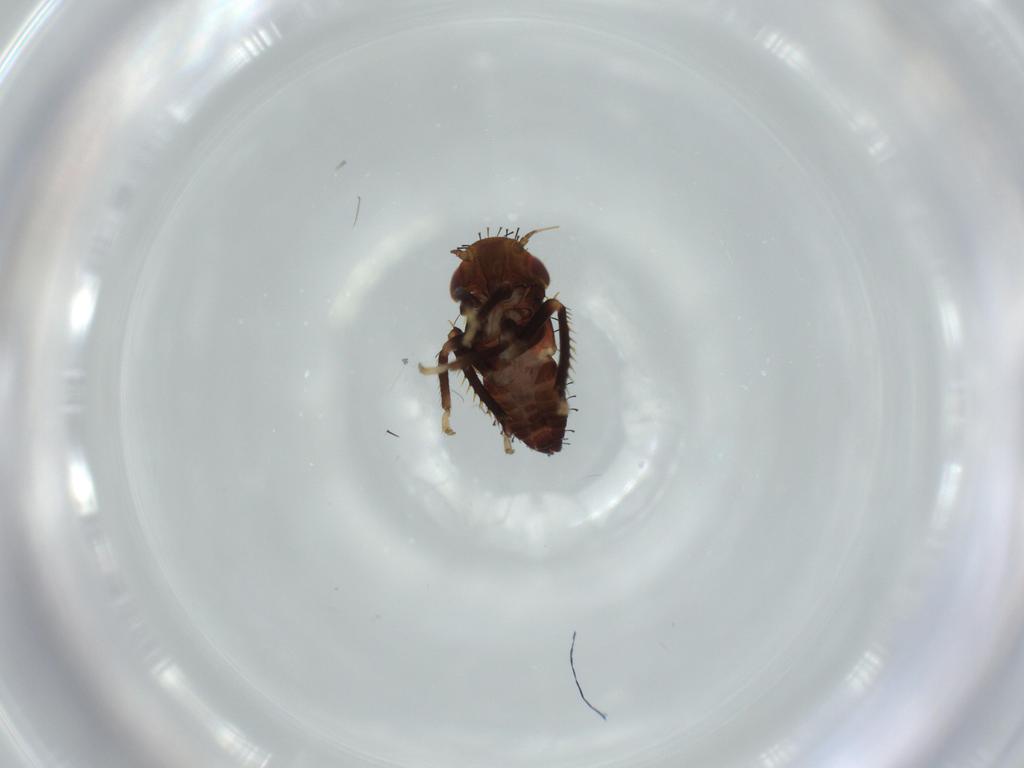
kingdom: Animalia
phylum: Arthropoda
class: Insecta
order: Hemiptera
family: Cicadellidae
